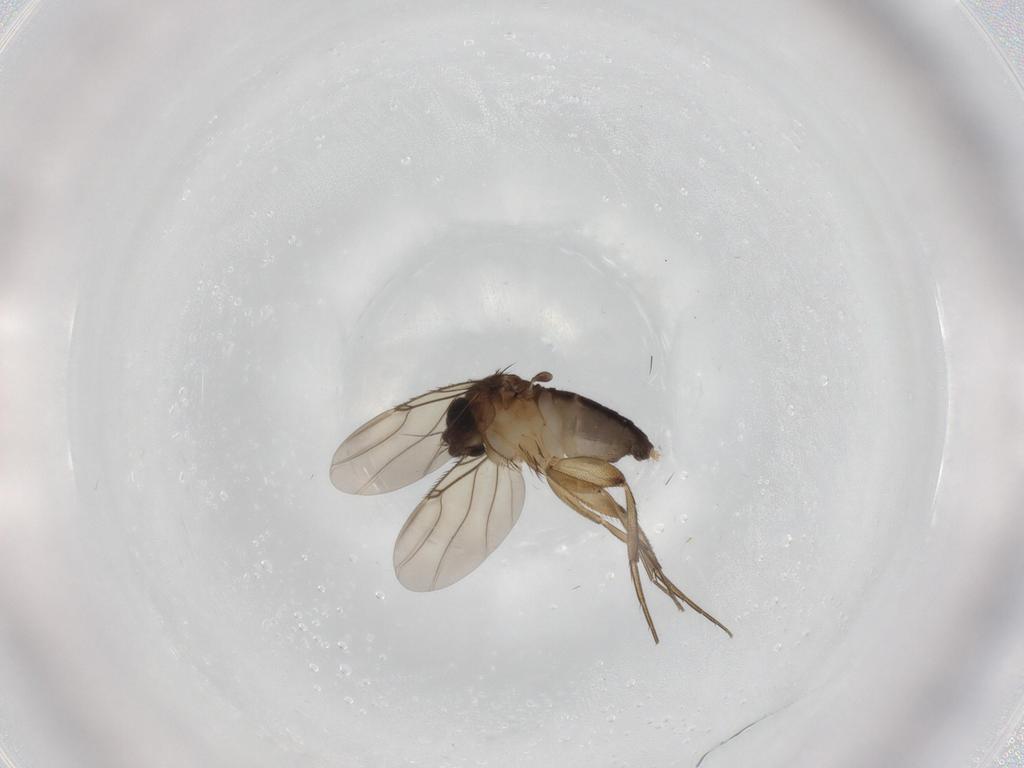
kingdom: Animalia
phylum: Arthropoda
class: Insecta
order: Diptera
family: Phoridae
